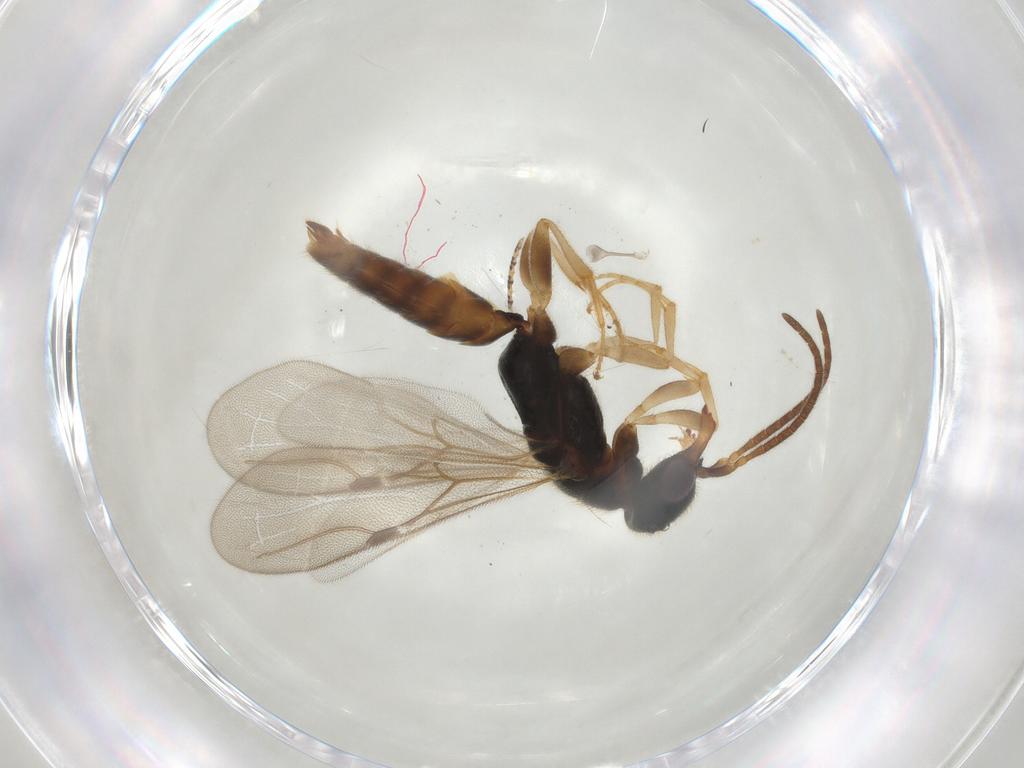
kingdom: Animalia
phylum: Arthropoda
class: Insecta
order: Hymenoptera
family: Bethylidae
